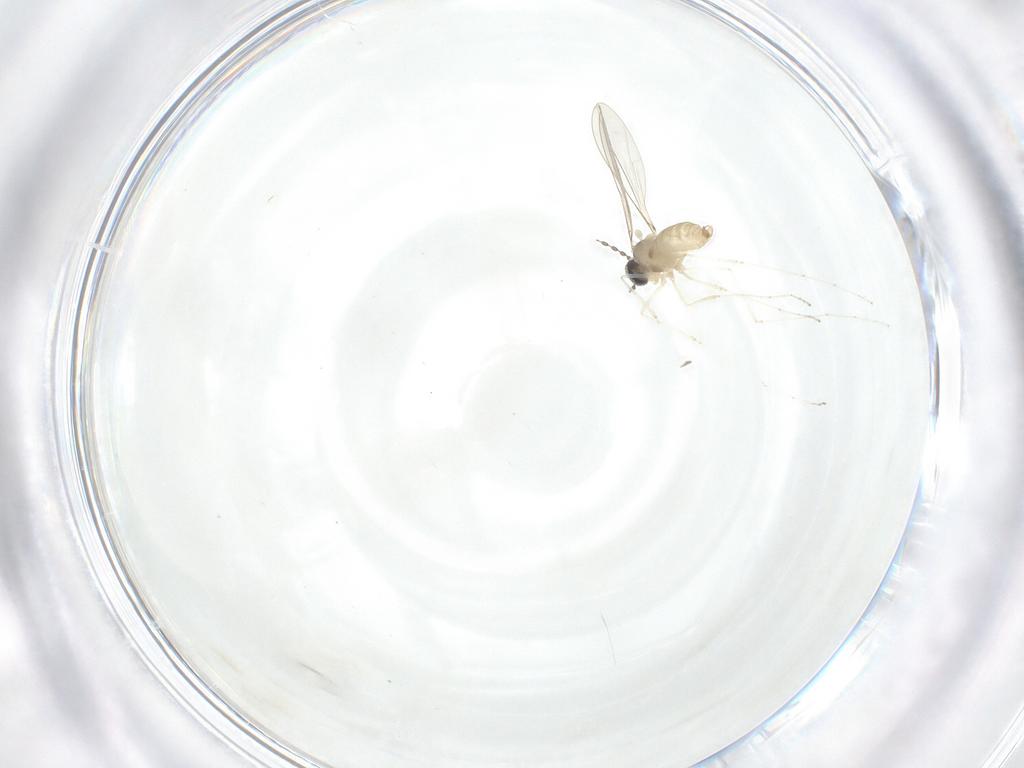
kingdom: Animalia
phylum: Arthropoda
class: Insecta
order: Diptera
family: Cecidomyiidae
